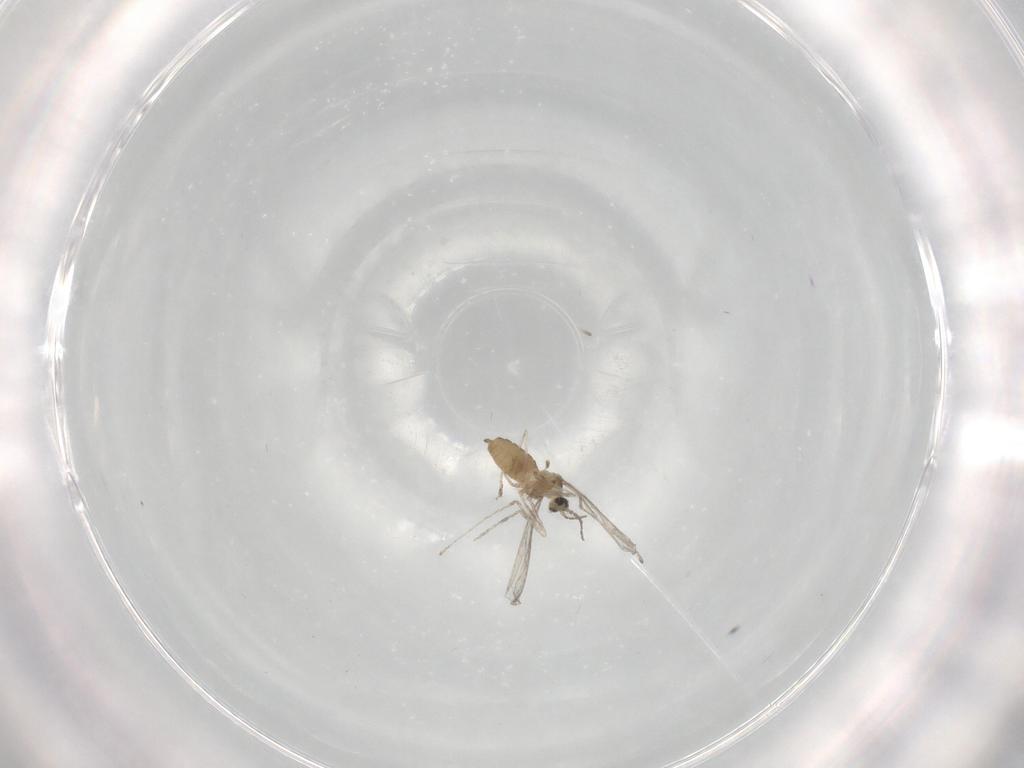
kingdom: Animalia
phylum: Arthropoda
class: Insecta
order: Diptera
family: Cecidomyiidae
